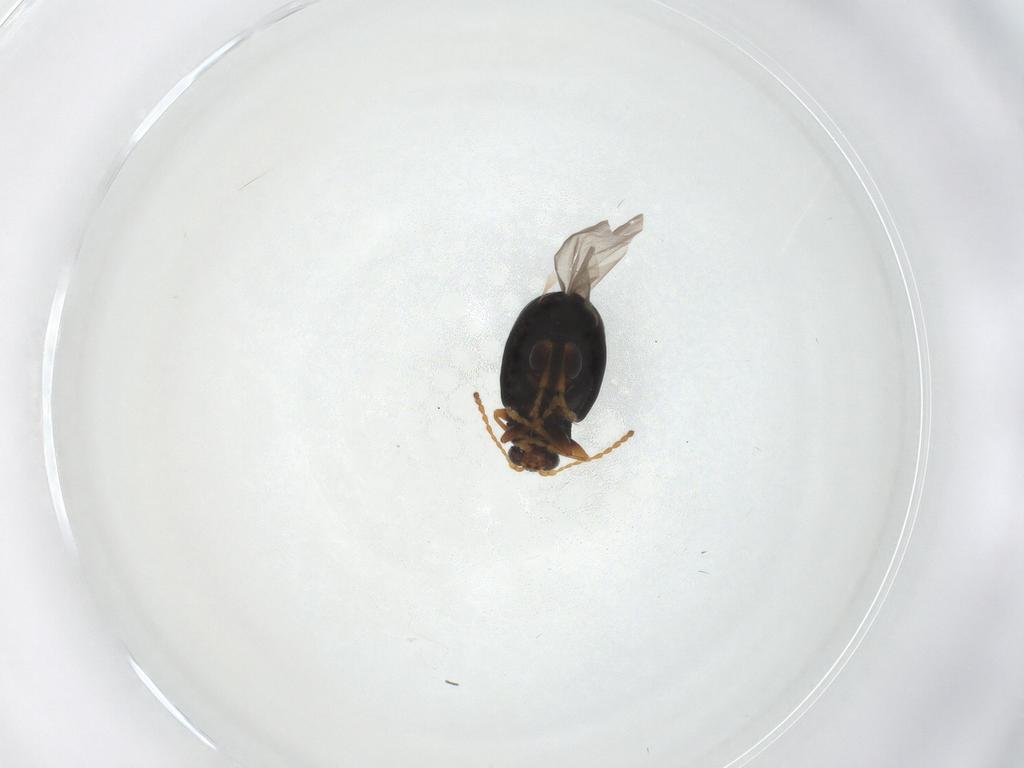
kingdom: Animalia
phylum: Arthropoda
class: Insecta
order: Coleoptera
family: Chrysomelidae
